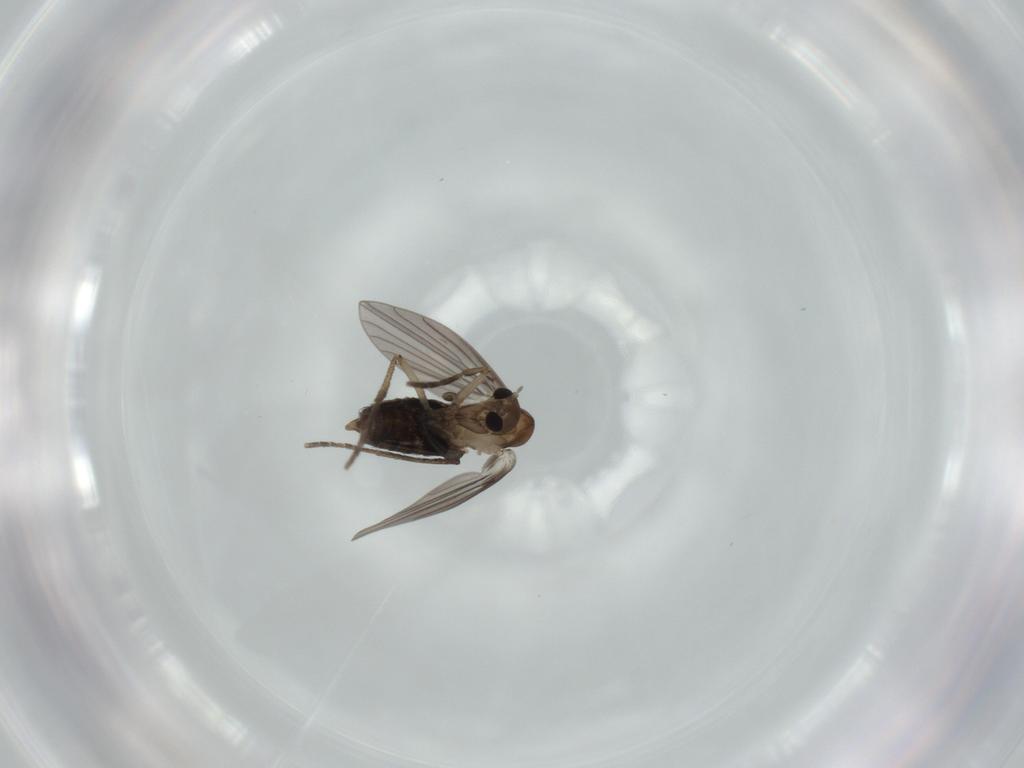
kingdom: Animalia
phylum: Arthropoda
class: Insecta
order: Diptera
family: Psychodidae
